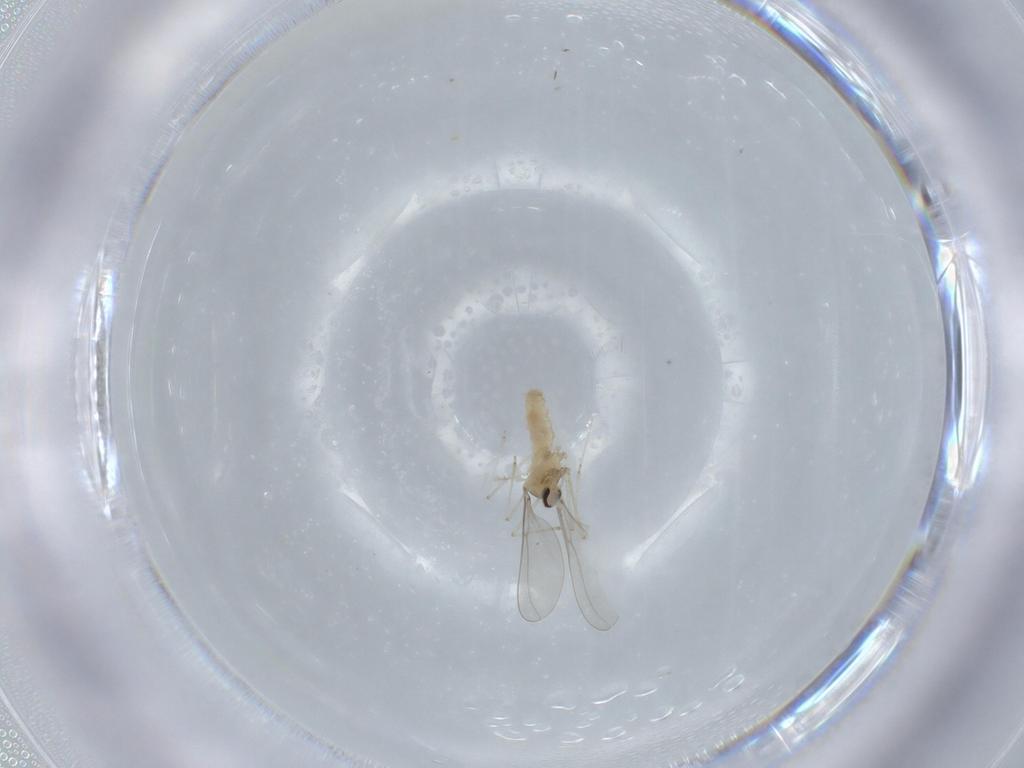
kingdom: Animalia
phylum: Arthropoda
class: Insecta
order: Diptera
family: Cecidomyiidae
